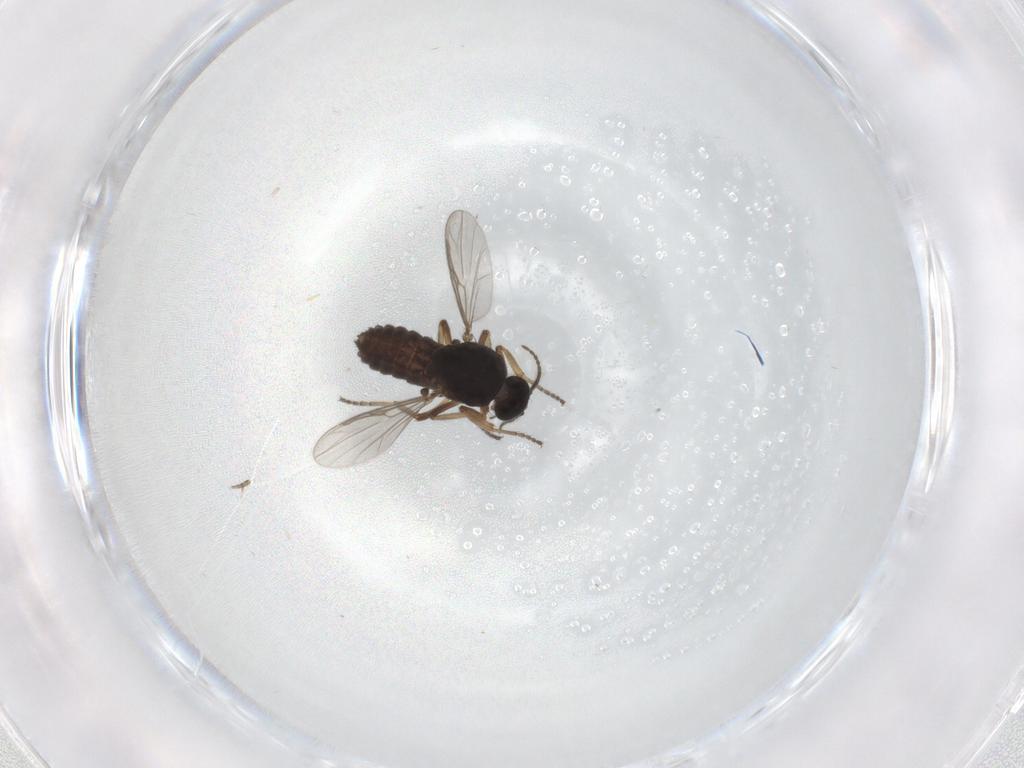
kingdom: Animalia
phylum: Arthropoda
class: Insecta
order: Diptera
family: Ceratopogonidae
